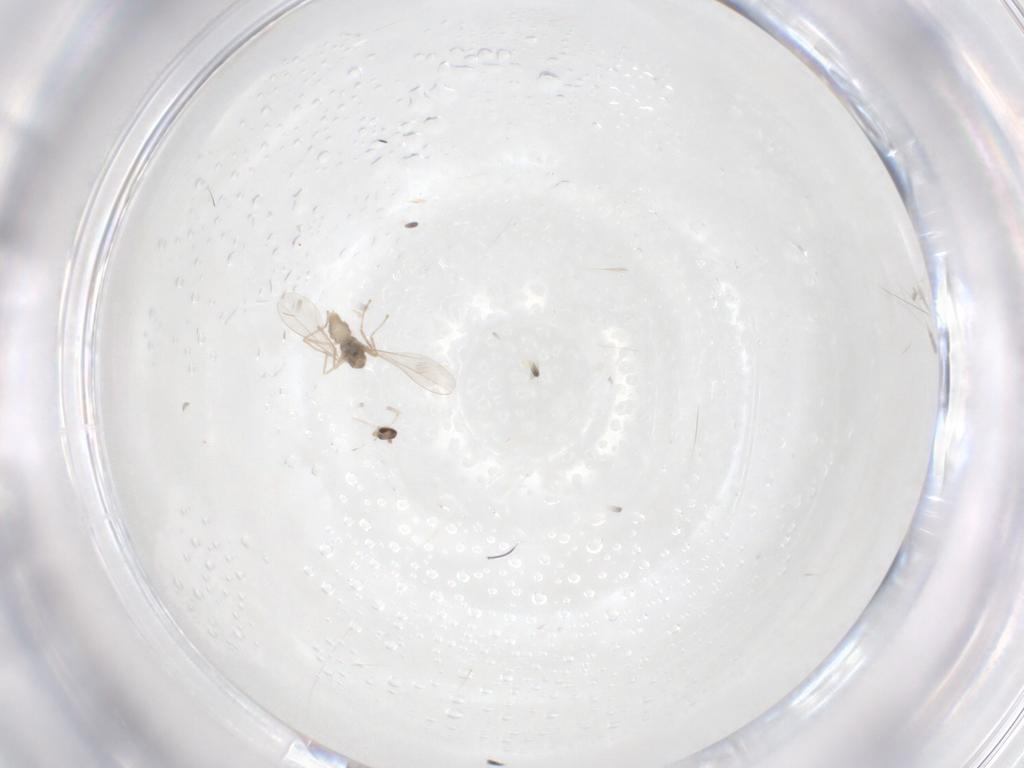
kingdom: Animalia
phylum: Arthropoda
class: Insecta
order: Diptera
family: Cecidomyiidae
